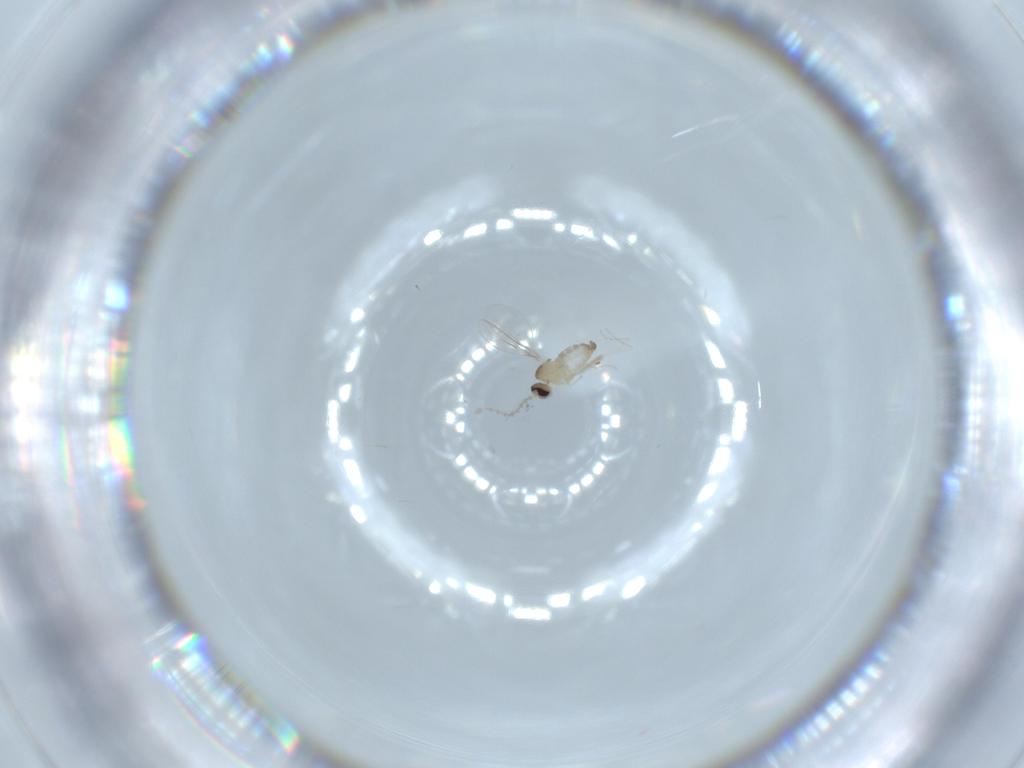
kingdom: Animalia
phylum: Arthropoda
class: Insecta
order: Diptera
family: Cecidomyiidae
